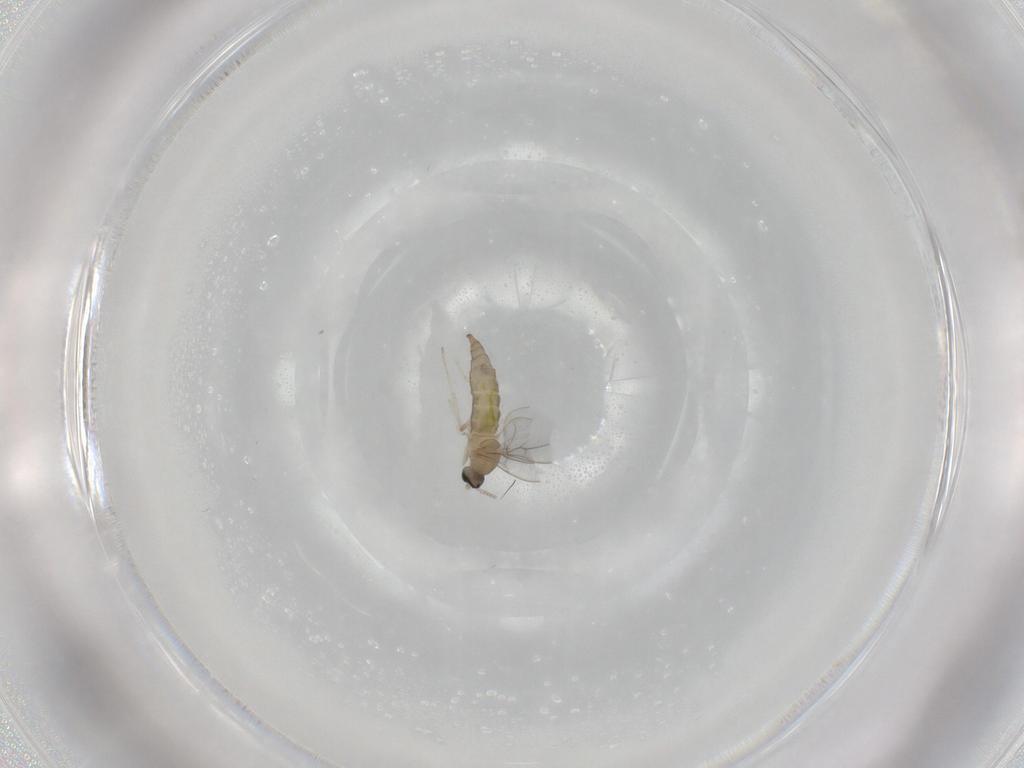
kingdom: Animalia
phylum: Arthropoda
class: Insecta
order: Diptera
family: Cecidomyiidae
